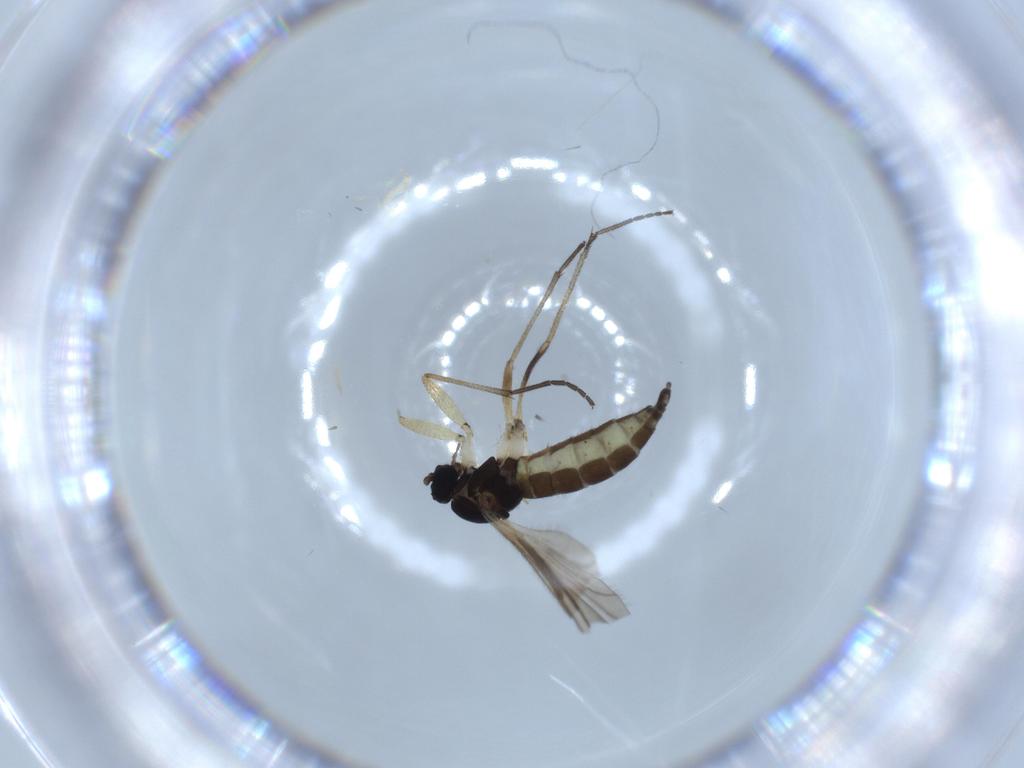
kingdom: Animalia
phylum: Arthropoda
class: Insecta
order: Diptera
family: Sciaridae
